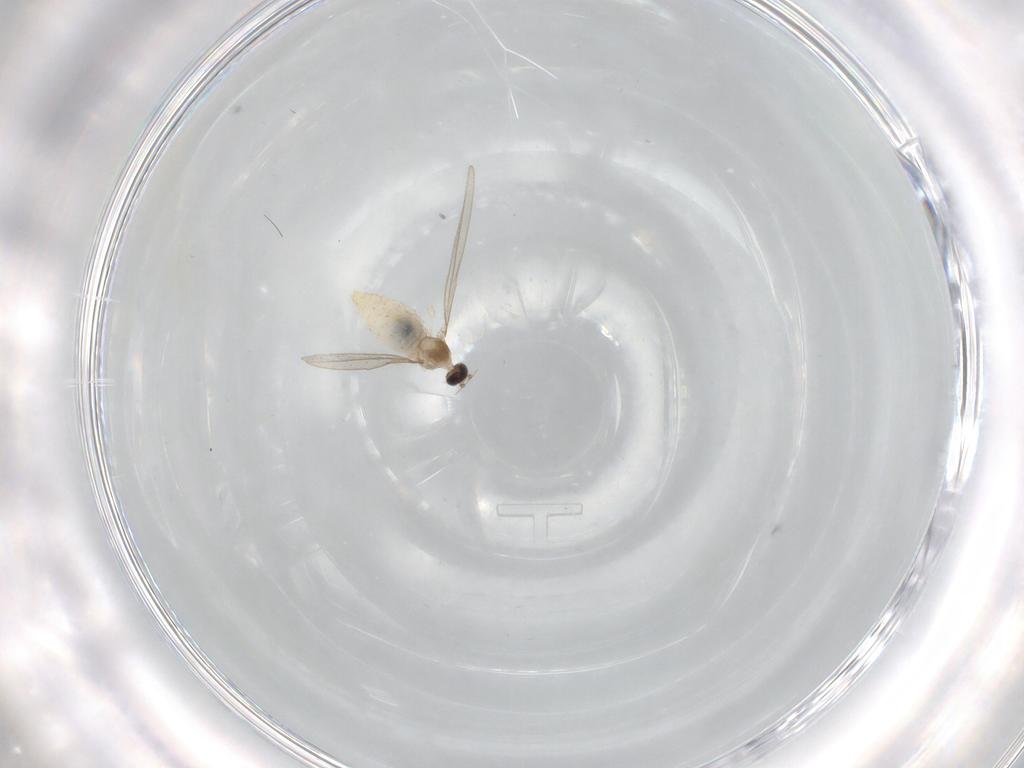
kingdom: Animalia
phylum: Arthropoda
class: Insecta
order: Diptera
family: Cecidomyiidae
